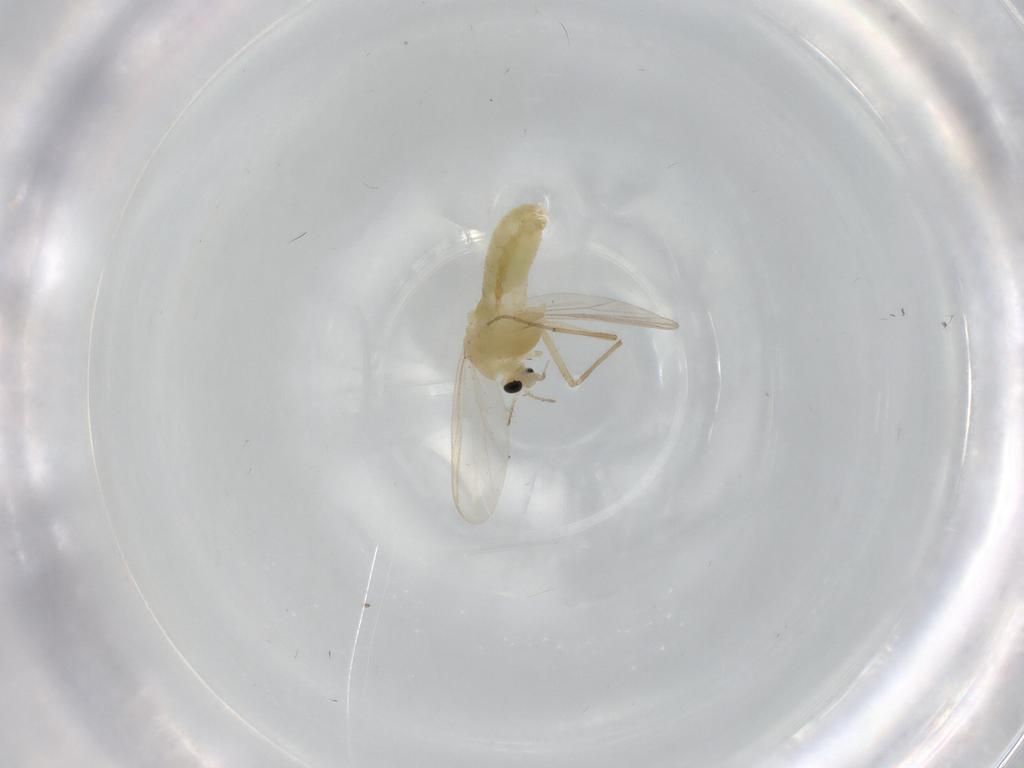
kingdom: Animalia
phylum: Arthropoda
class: Insecta
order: Diptera
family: Chironomidae
